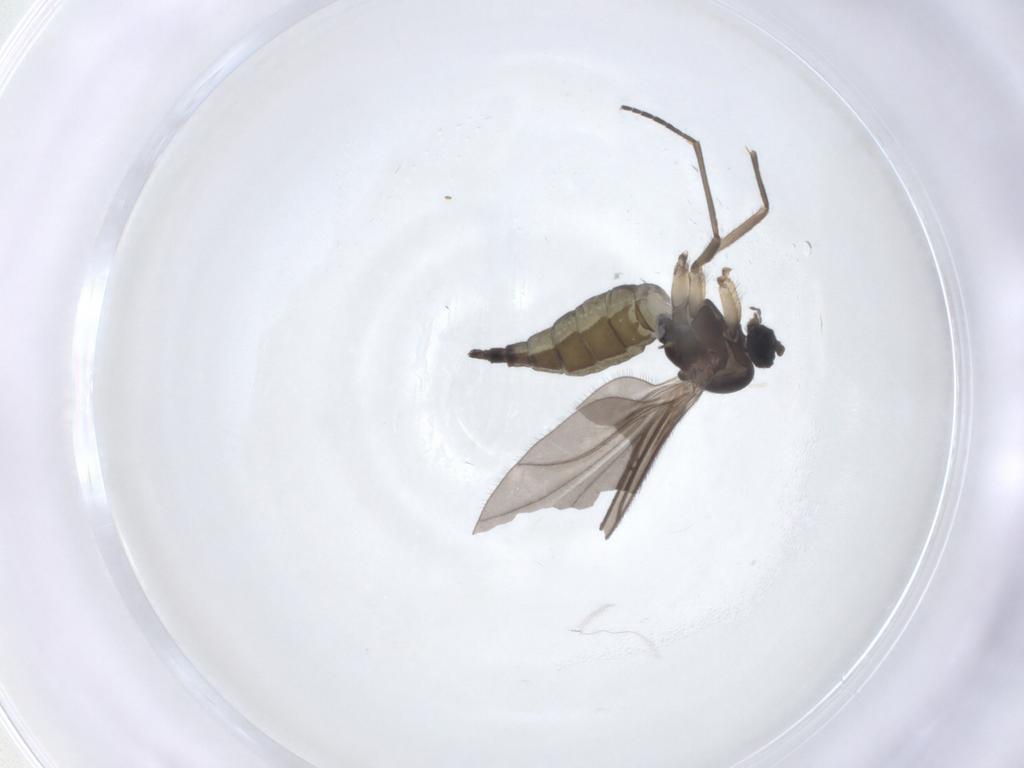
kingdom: Animalia
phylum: Arthropoda
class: Insecta
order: Diptera
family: Sciaridae
